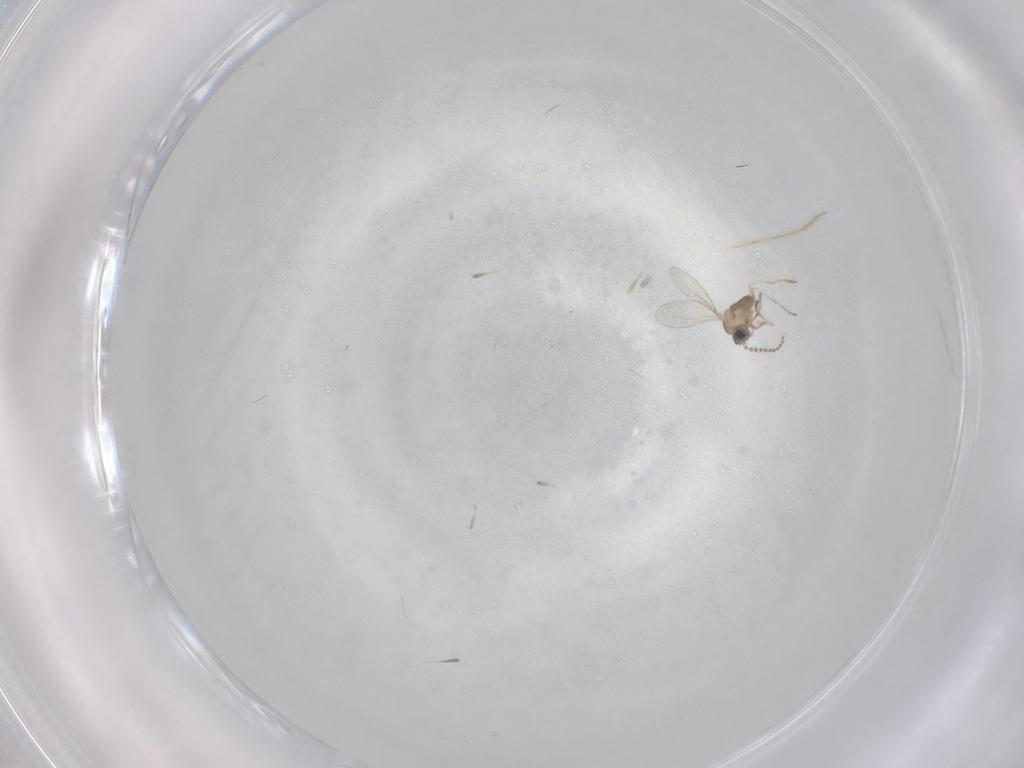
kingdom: Animalia
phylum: Arthropoda
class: Insecta
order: Diptera
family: Cecidomyiidae
